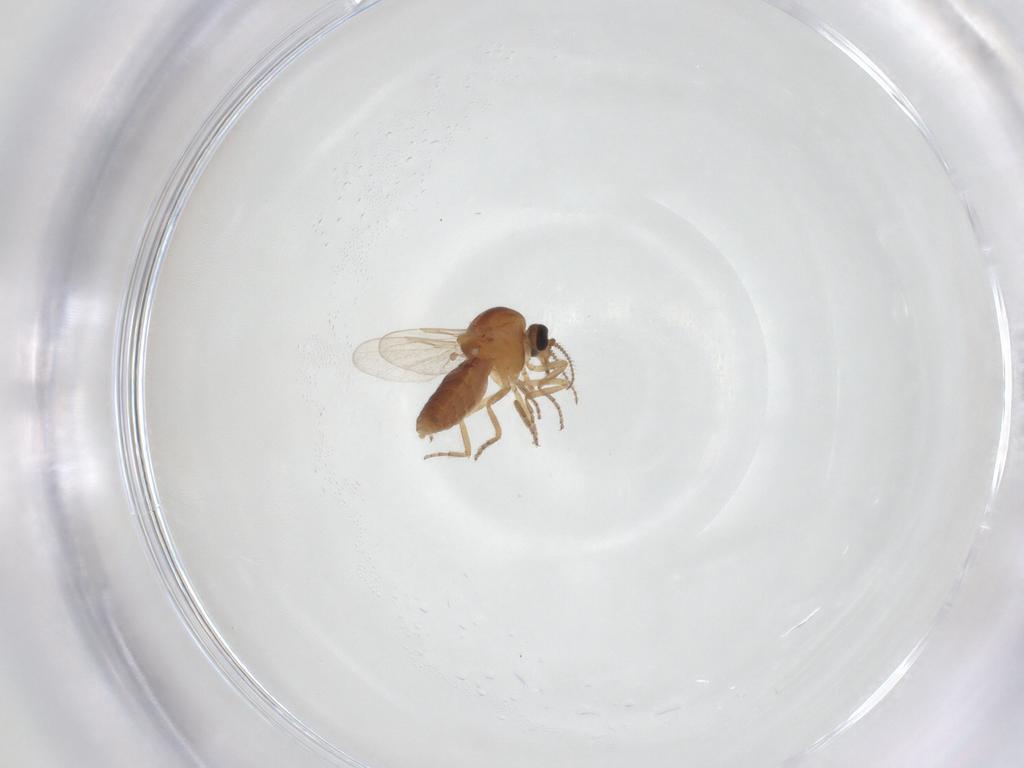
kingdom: Animalia
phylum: Arthropoda
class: Insecta
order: Diptera
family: Ceratopogonidae
